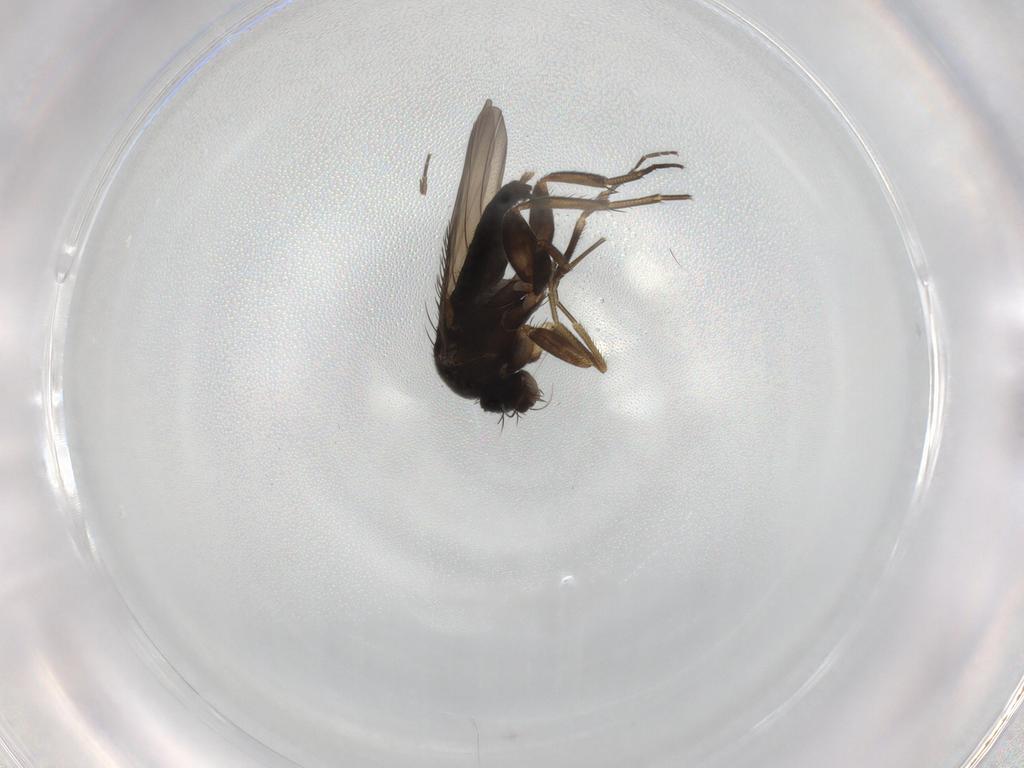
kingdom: Animalia
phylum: Arthropoda
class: Insecta
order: Diptera
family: Phoridae
